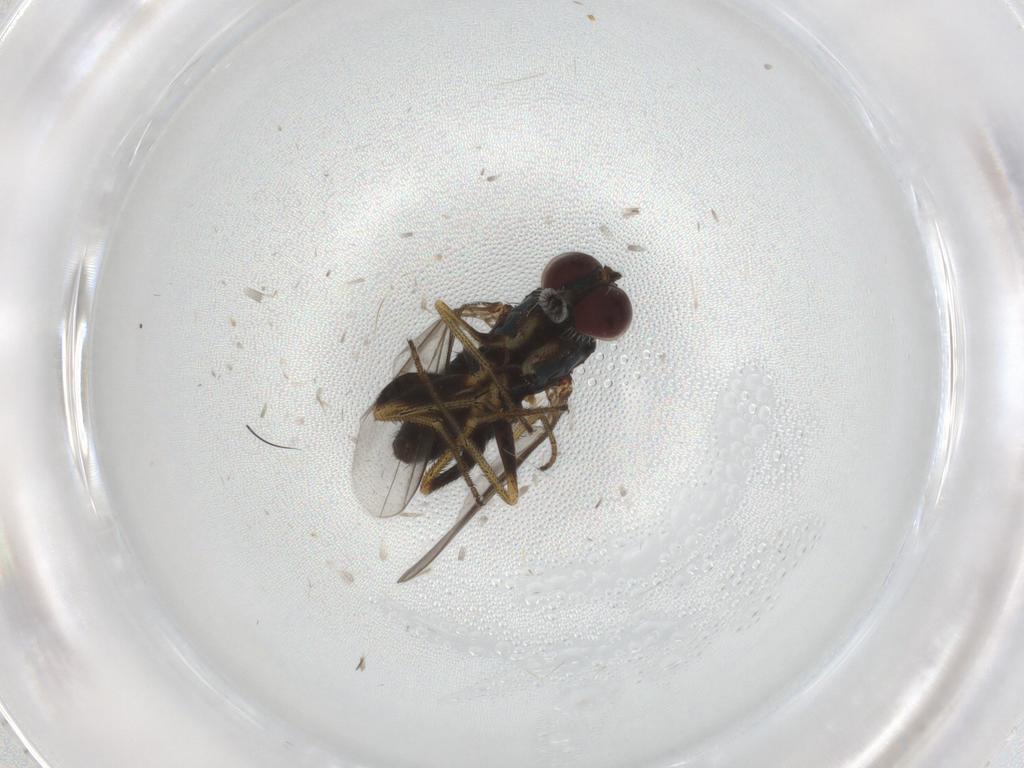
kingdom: Animalia
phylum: Arthropoda
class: Insecta
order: Diptera
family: Dolichopodidae
